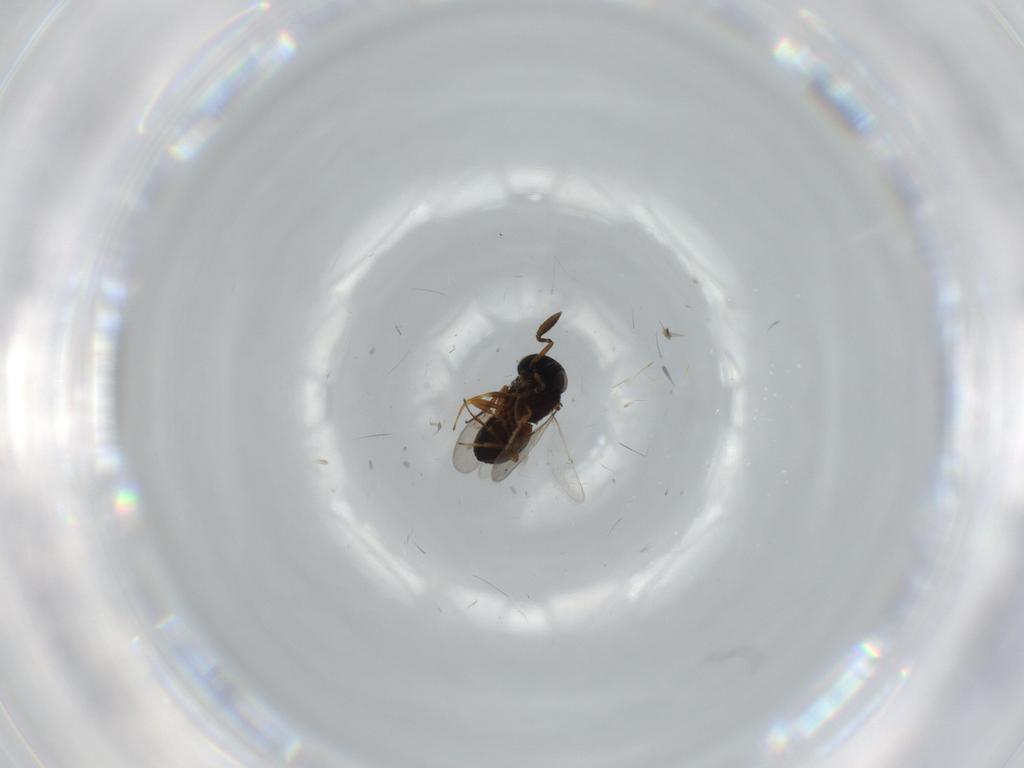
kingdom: Animalia
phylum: Arthropoda
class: Insecta
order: Coleoptera
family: Curculionidae
